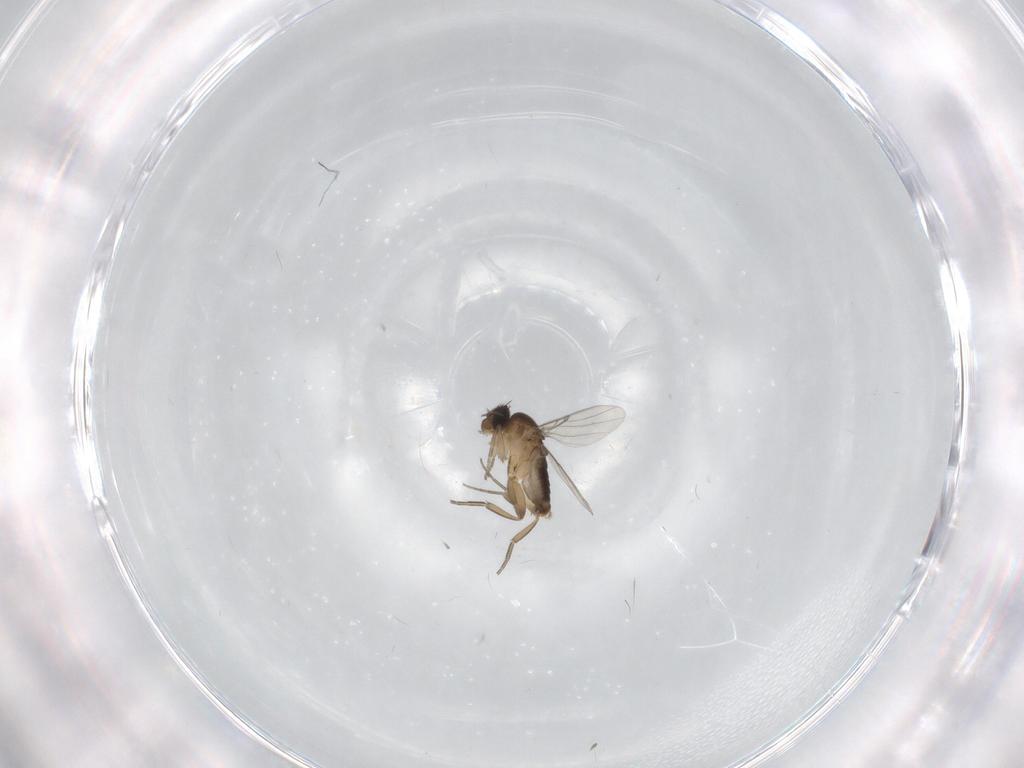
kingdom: Animalia
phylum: Arthropoda
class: Insecta
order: Diptera
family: Chironomidae
